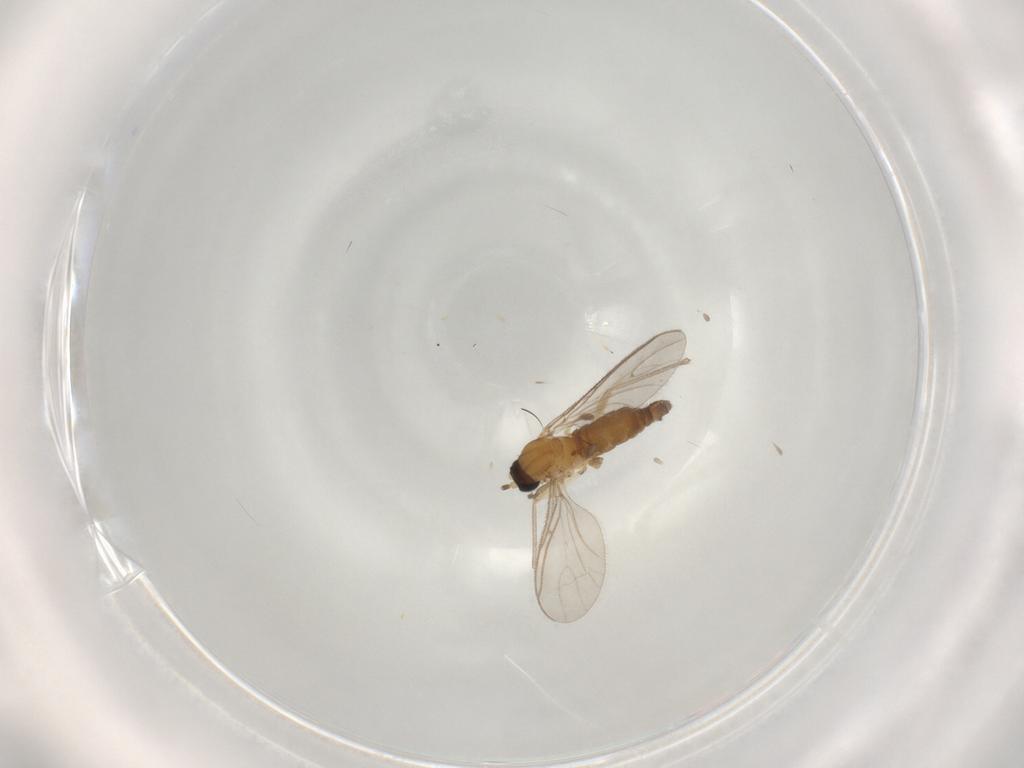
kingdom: Animalia
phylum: Arthropoda
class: Insecta
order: Diptera
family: Sciaridae
